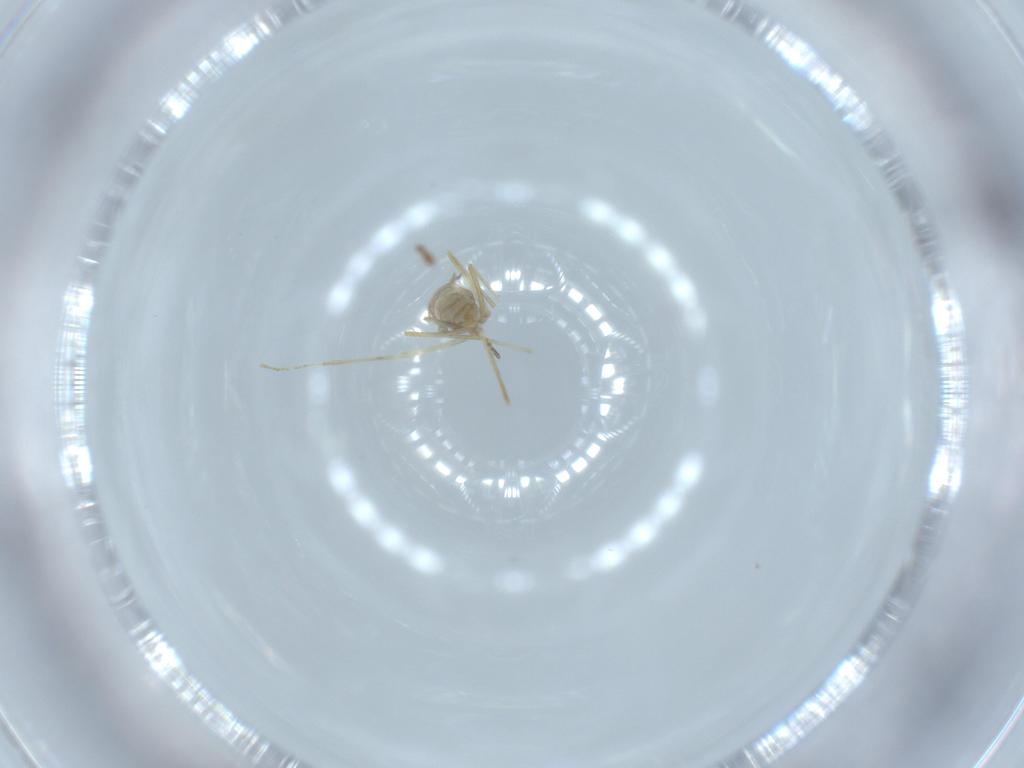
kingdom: Animalia
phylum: Arthropoda
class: Insecta
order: Diptera
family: Cecidomyiidae
